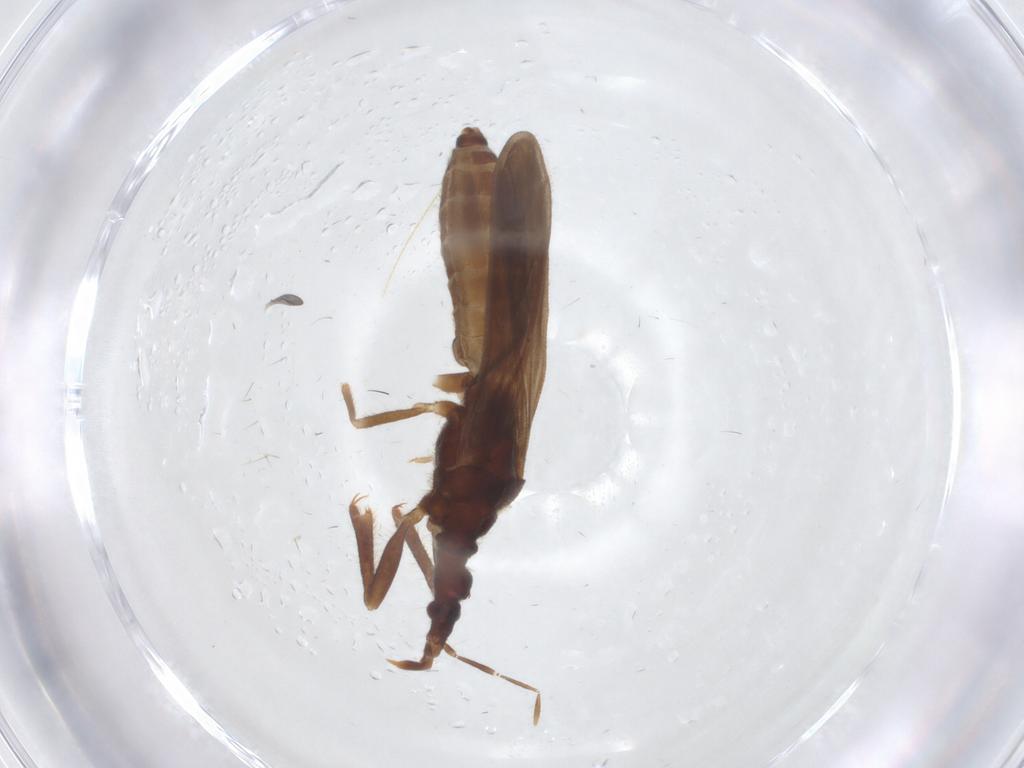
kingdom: Animalia
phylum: Arthropoda
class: Insecta
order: Hemiptera
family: Enicocephalidae
